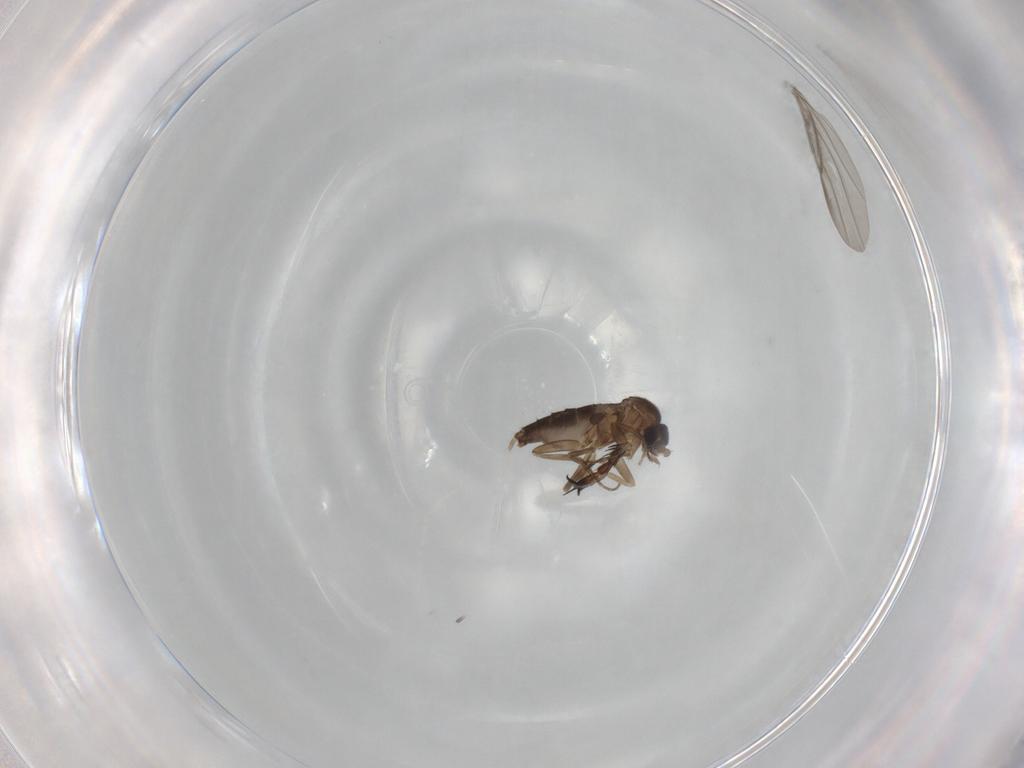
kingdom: Animalia
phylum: Arthropoda
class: Insecta
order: Diptera
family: Asilidae
